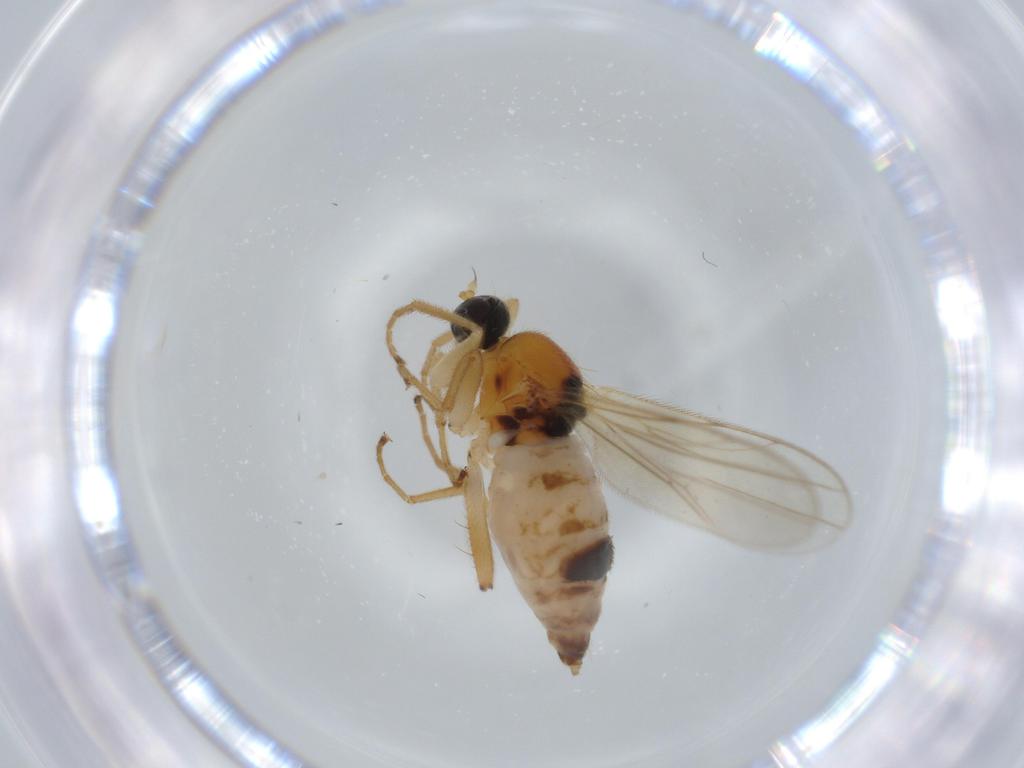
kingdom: Animalia
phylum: Arthropoda
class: Insecta
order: Diptera
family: Hybotidae
